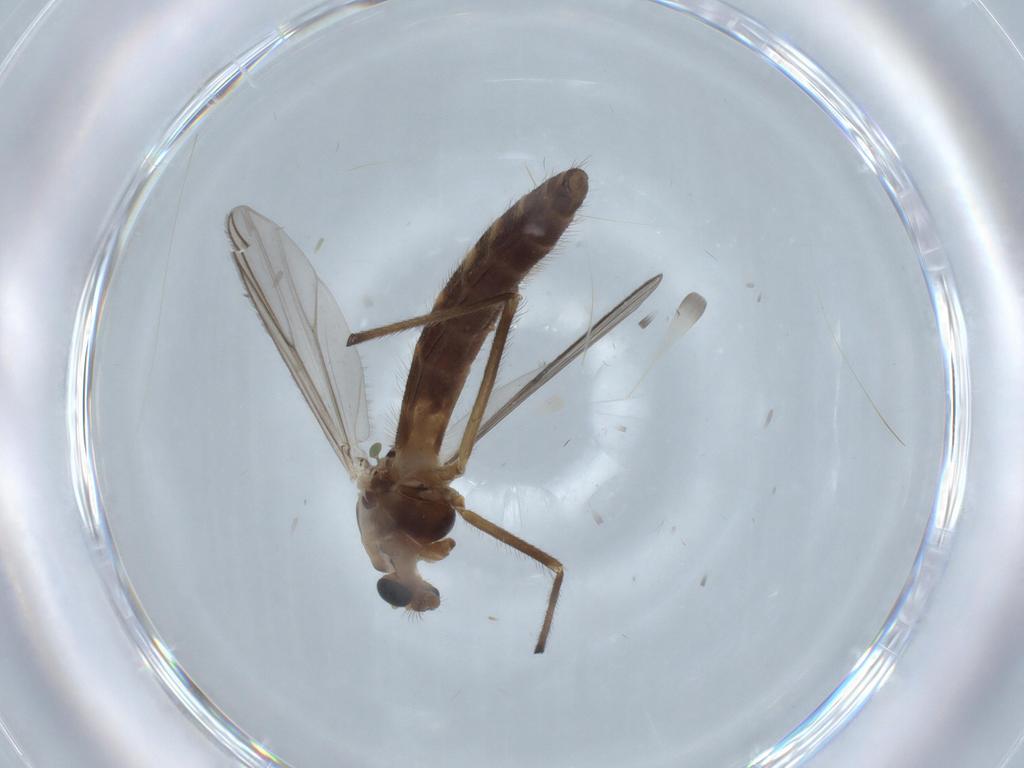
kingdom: Animalia
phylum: Arthropoda
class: Insecta
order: Diptera
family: Chironomidae
